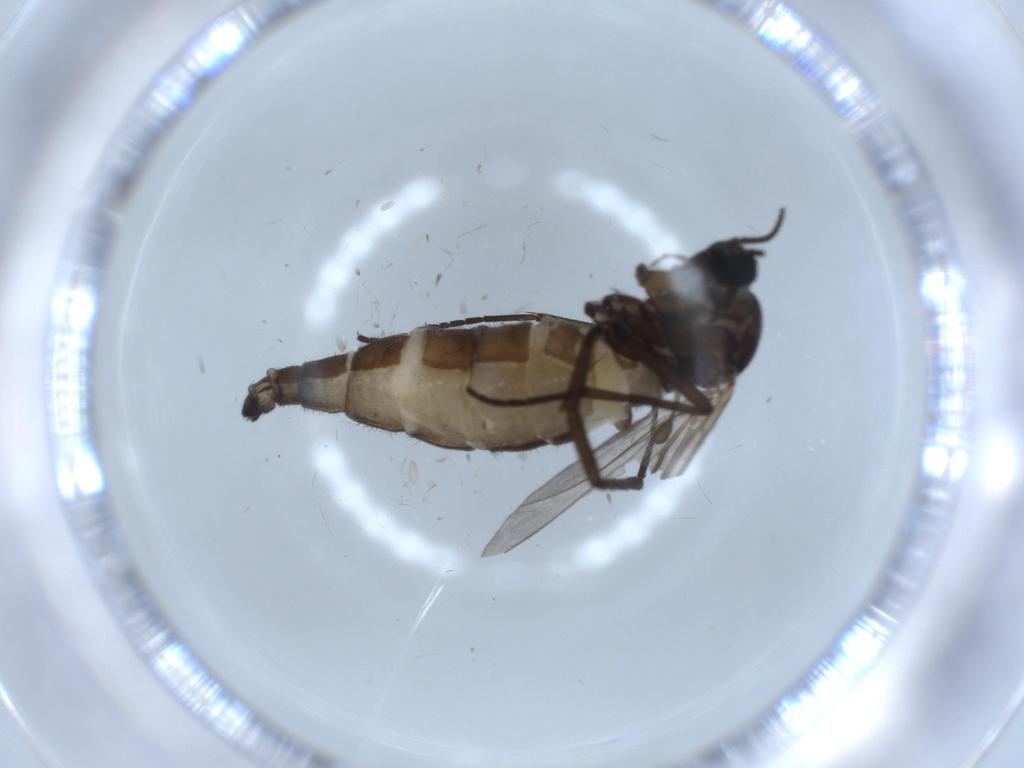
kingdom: Animalia
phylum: Arthropoda
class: Insecta
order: Diptera
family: Sciaridae
